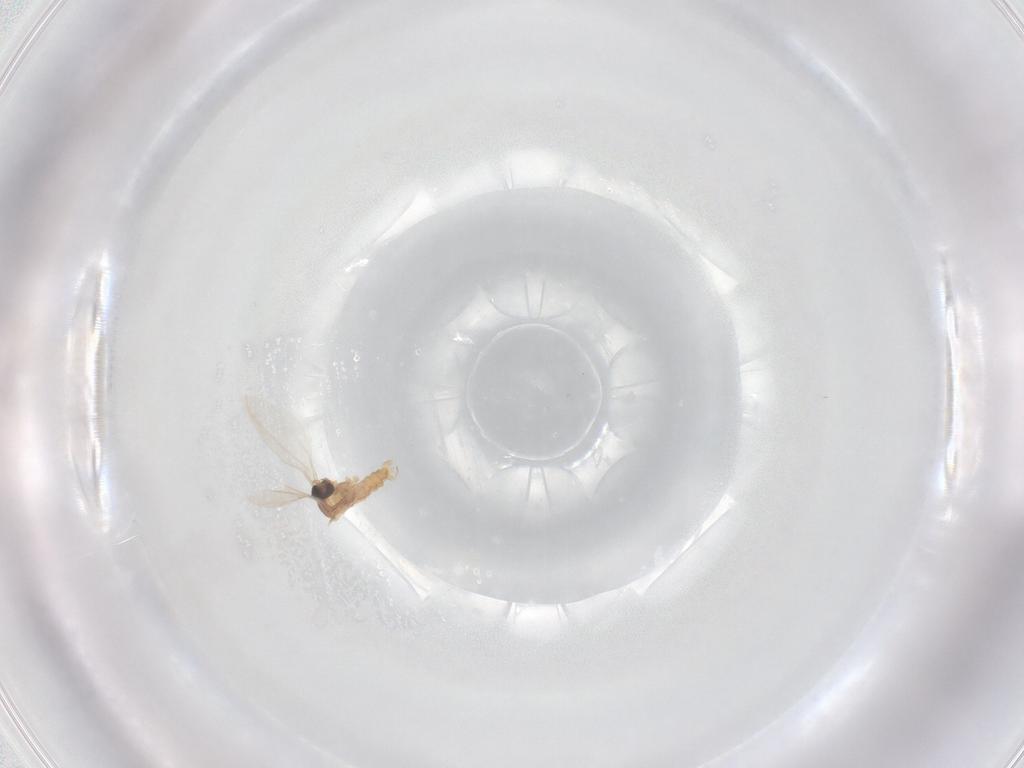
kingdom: Animalia
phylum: Arthropoda
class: Insecta
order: Diptera
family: Cecidomyiidae
